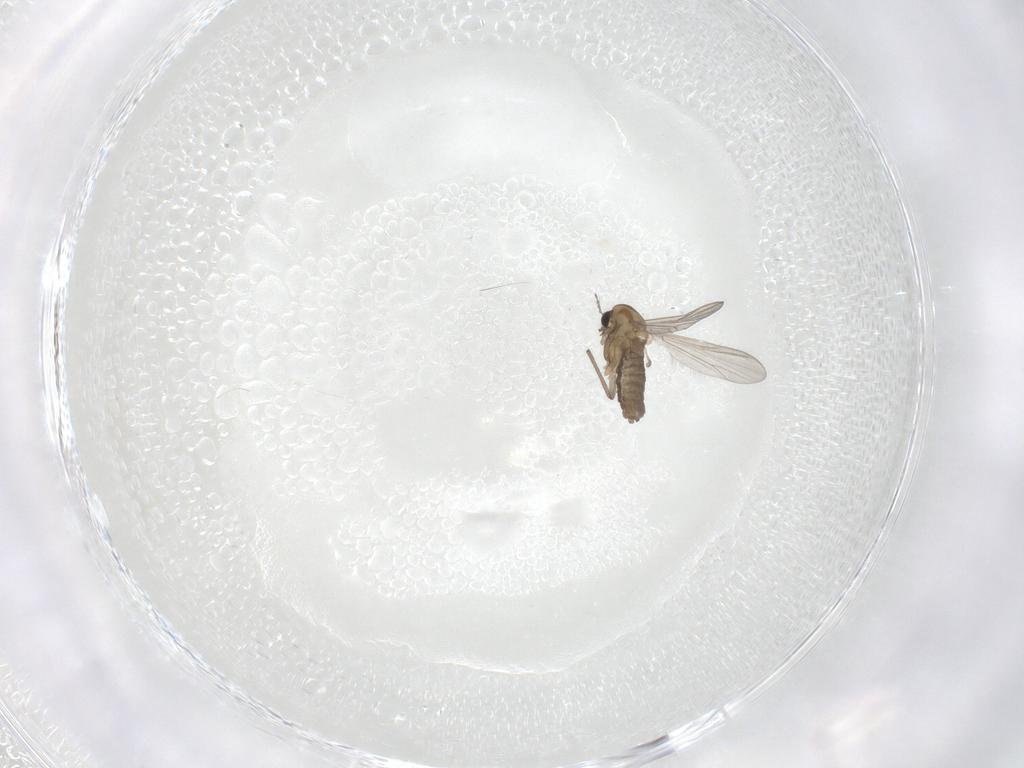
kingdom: Animalia
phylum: Arthropoda
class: Insecta
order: Diptera
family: Chironomidae
